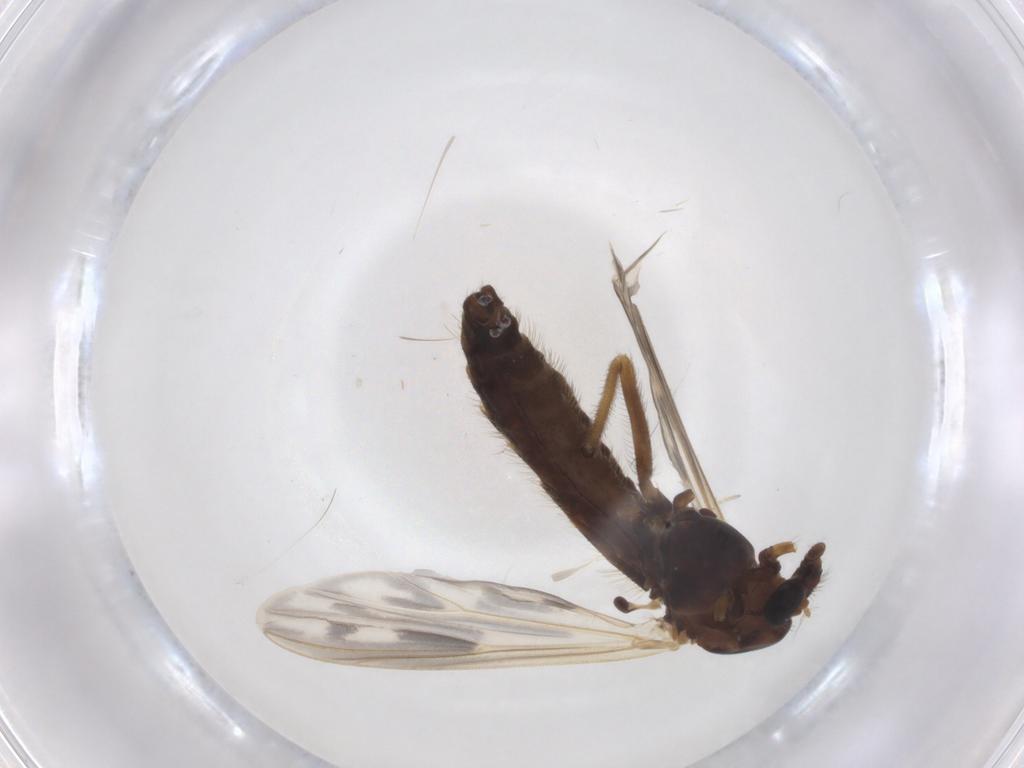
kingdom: Animalia
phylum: Arthropoda
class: Insecta
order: Diptera
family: Chironomidae
